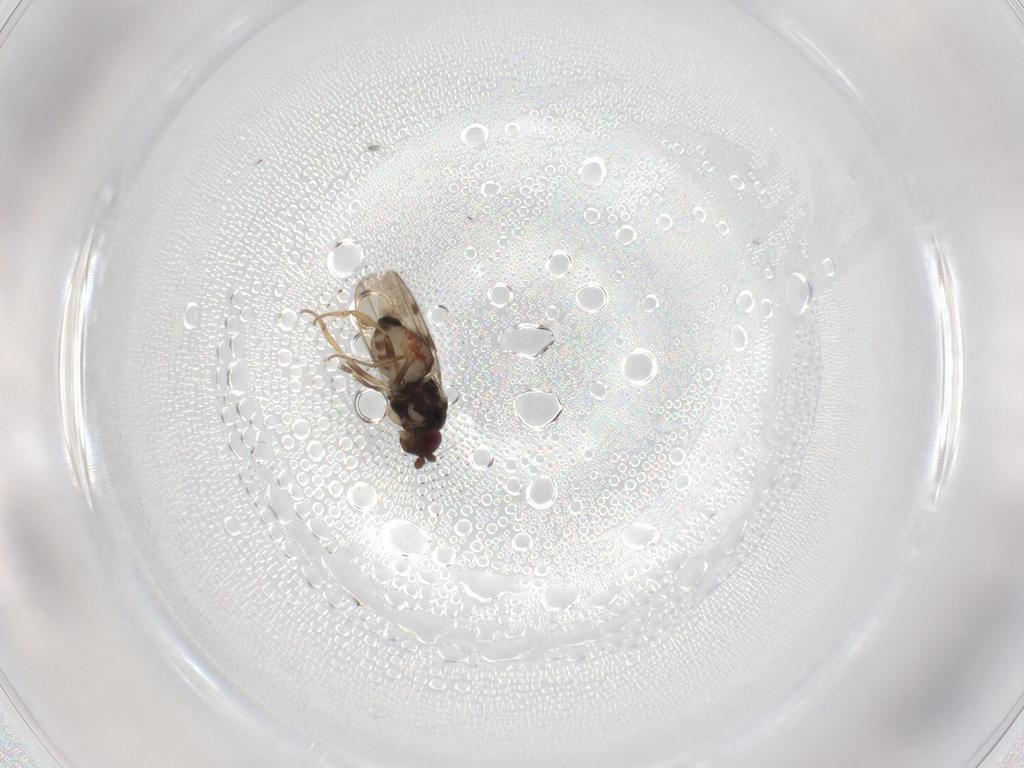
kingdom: Animalia
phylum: Arthropoda
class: Insecta
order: Diptera
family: Sphaeroceridae
